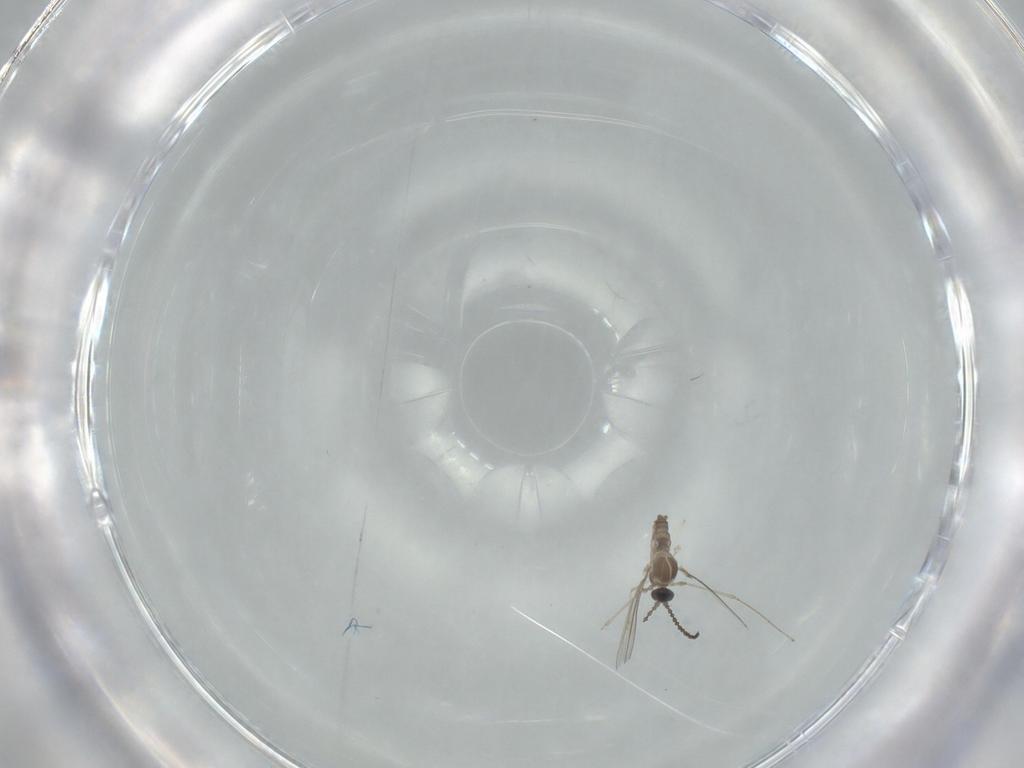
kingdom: Animalia
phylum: Arthropoda
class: Insecta
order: Diptera
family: Cecidomyiidae
